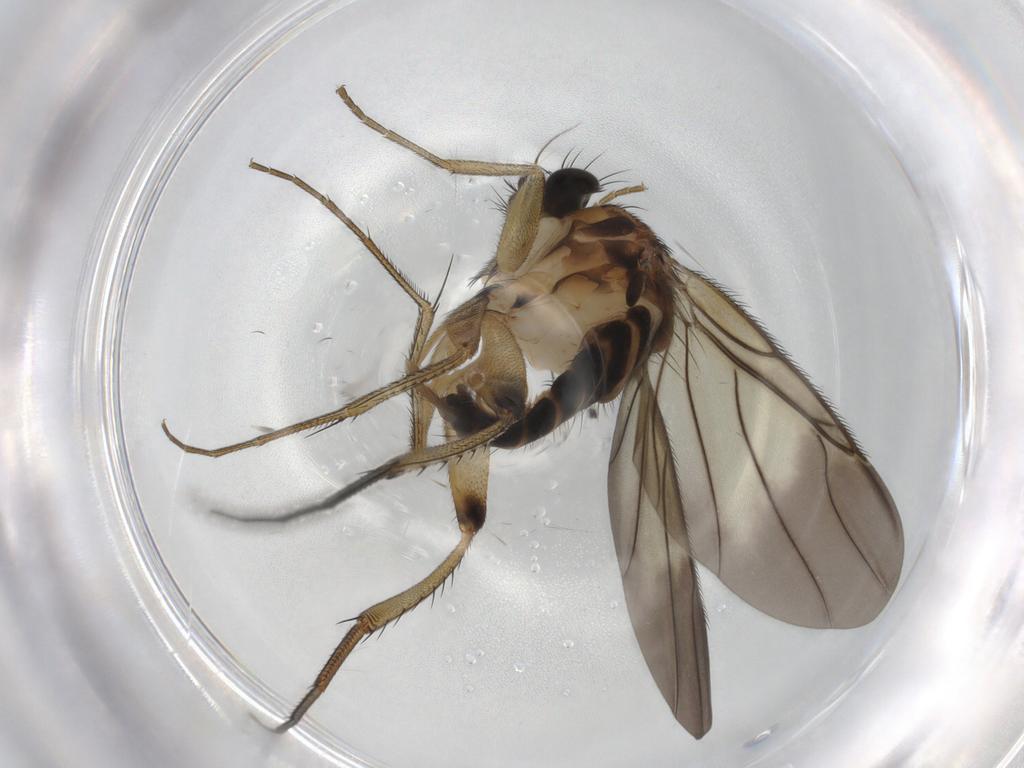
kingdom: Animalia
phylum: Arthropoda
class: Insecta
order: Diptera
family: Phoridae
